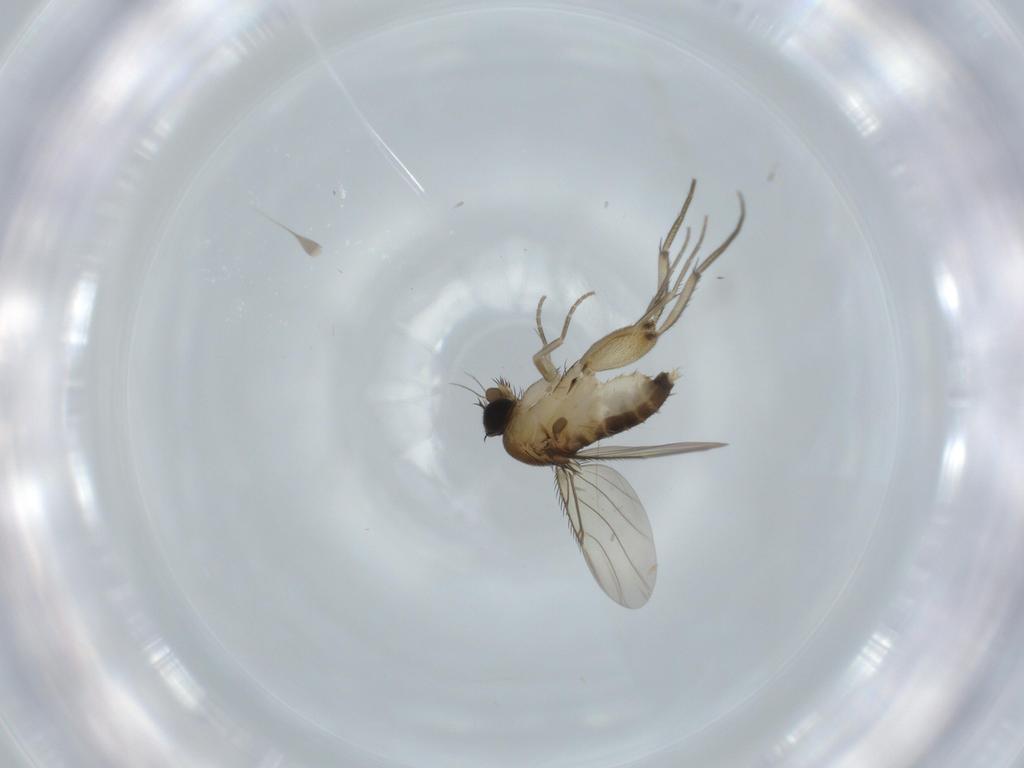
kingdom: Animalia
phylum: Arthropoda
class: Insecta
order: Diptera
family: Phoridae
